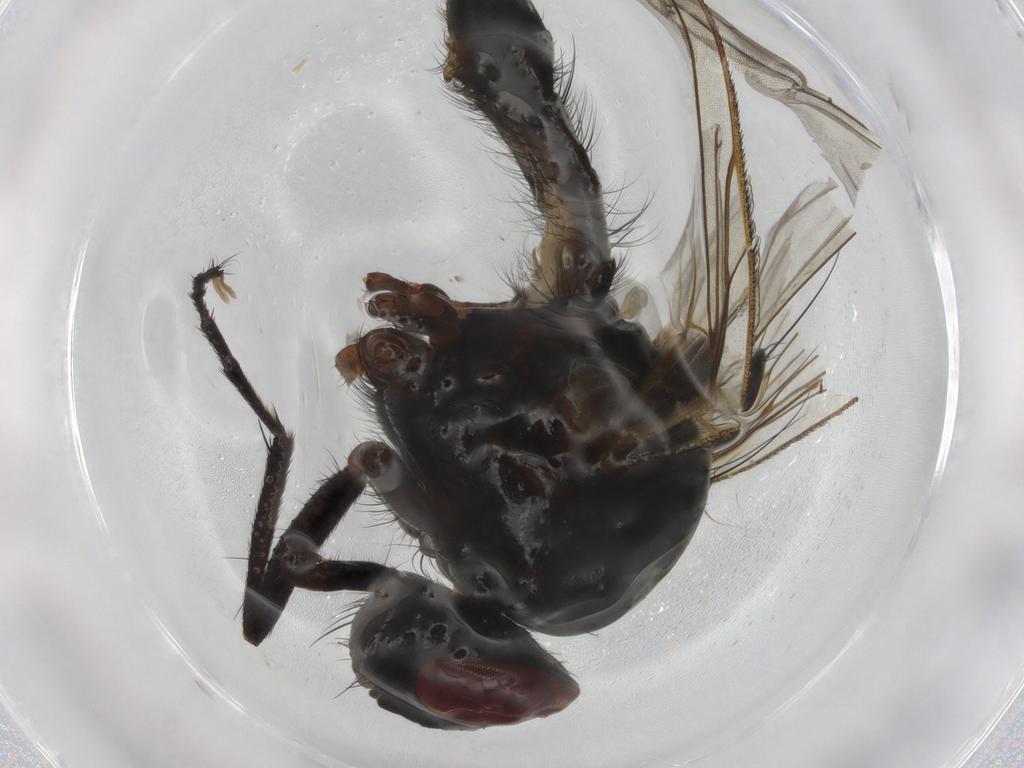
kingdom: Animalia
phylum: Arthropoda
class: Insecta
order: Diptera
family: Anthomyiidae
